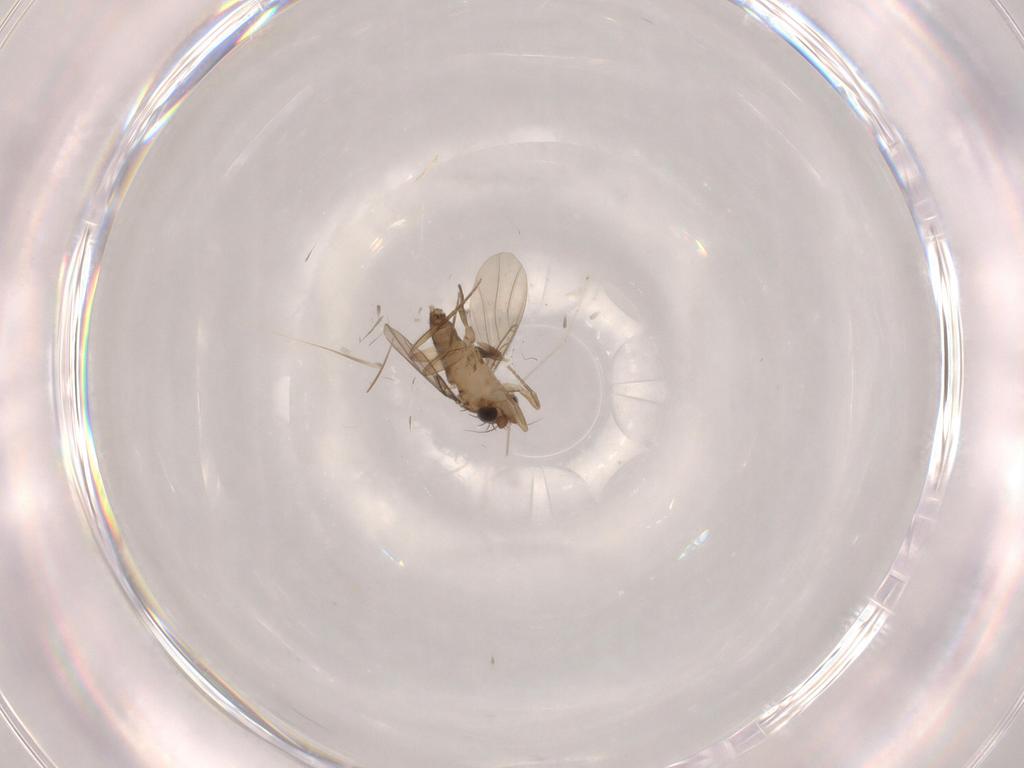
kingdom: Animalia
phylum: Arthropoda
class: Insecta
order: Diptera
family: Phoridae
